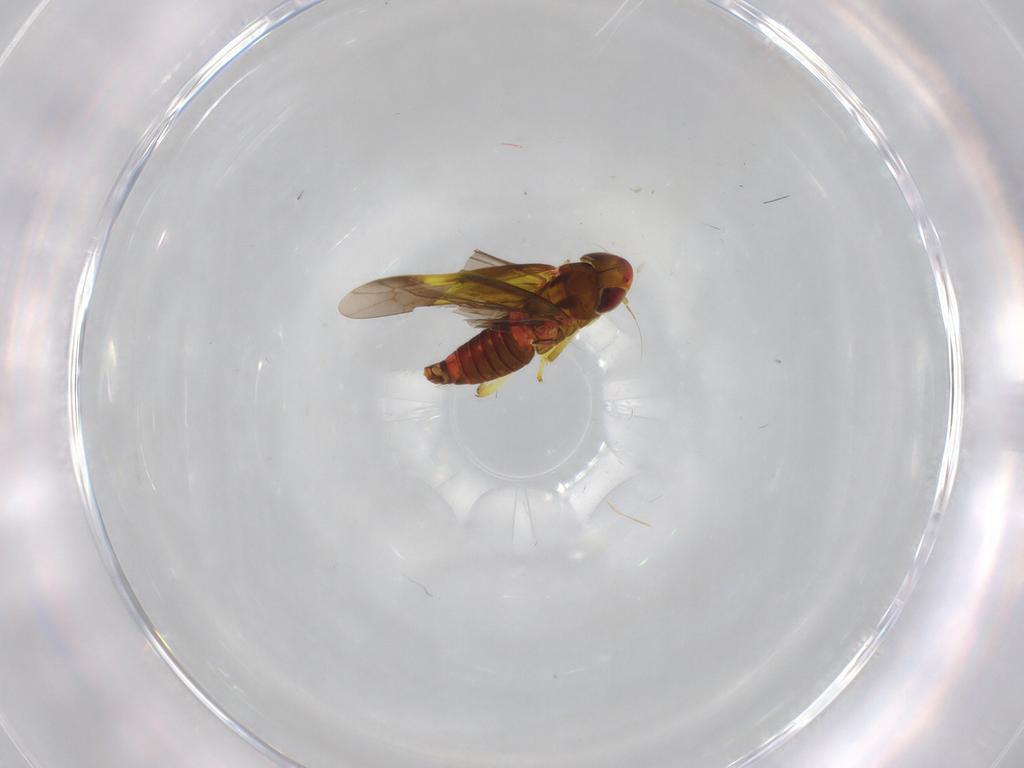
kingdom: Animalia
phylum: Arthropoda
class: Insecta
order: Hemiptera
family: Cicadellidae
